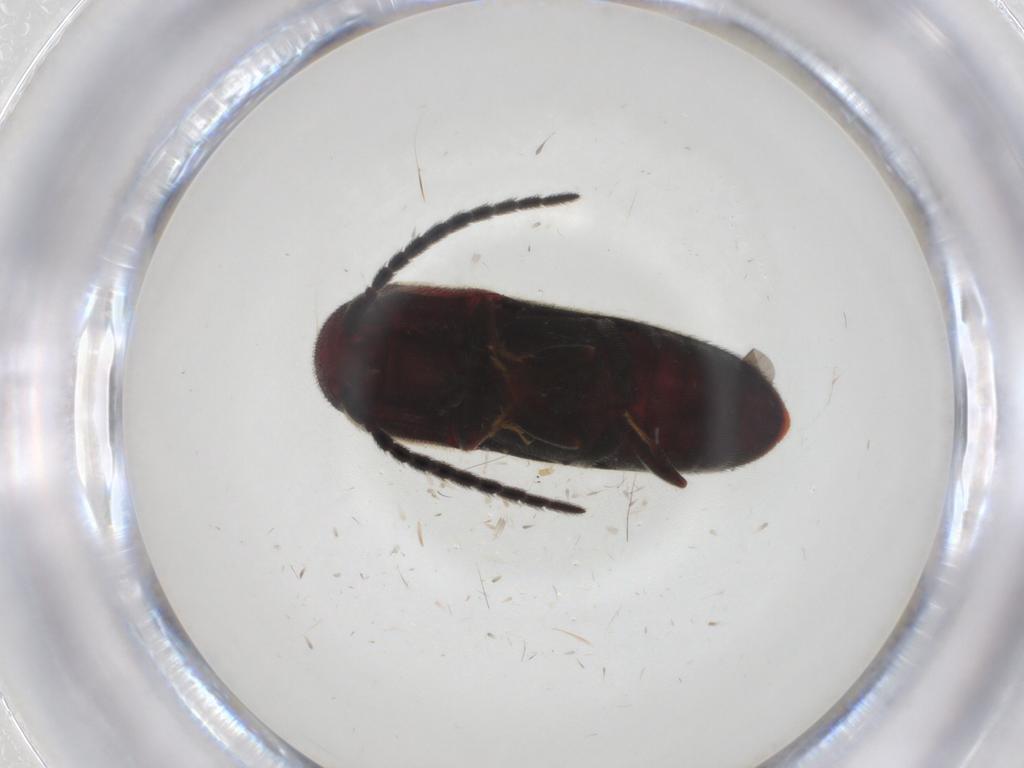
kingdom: Animalia
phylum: Arthropoda
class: Insecta
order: Coleoptera
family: Eucnemidae
